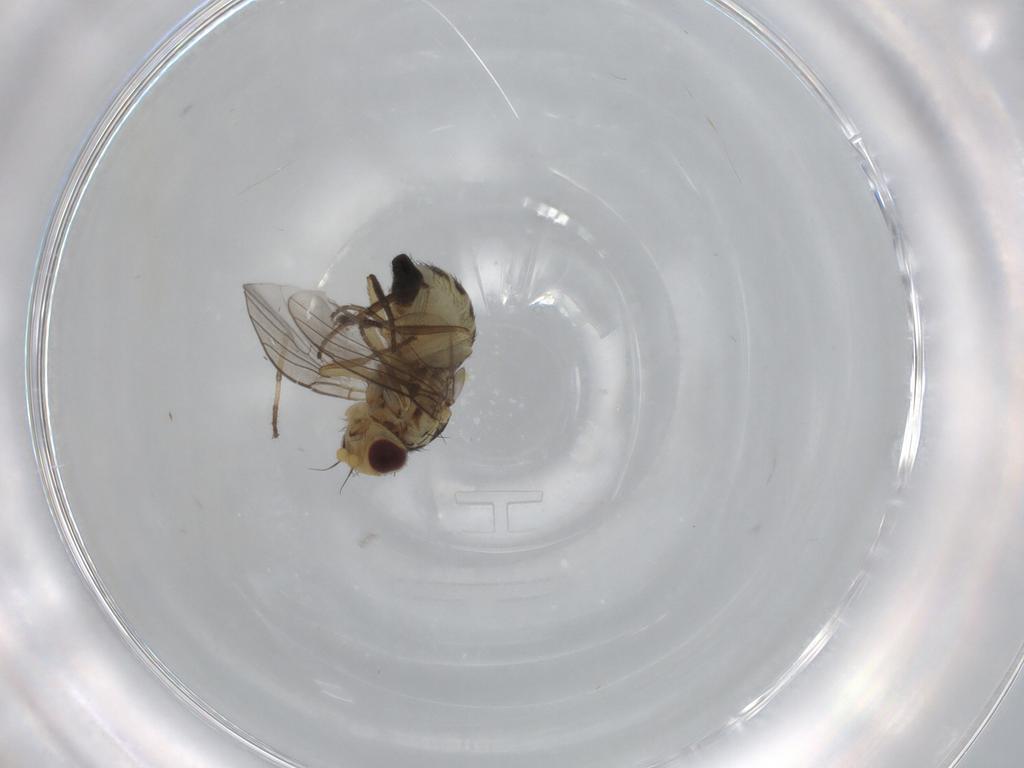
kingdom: Animalia
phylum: Arthropoda
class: Insecta
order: Diptera
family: Agromyzidae
